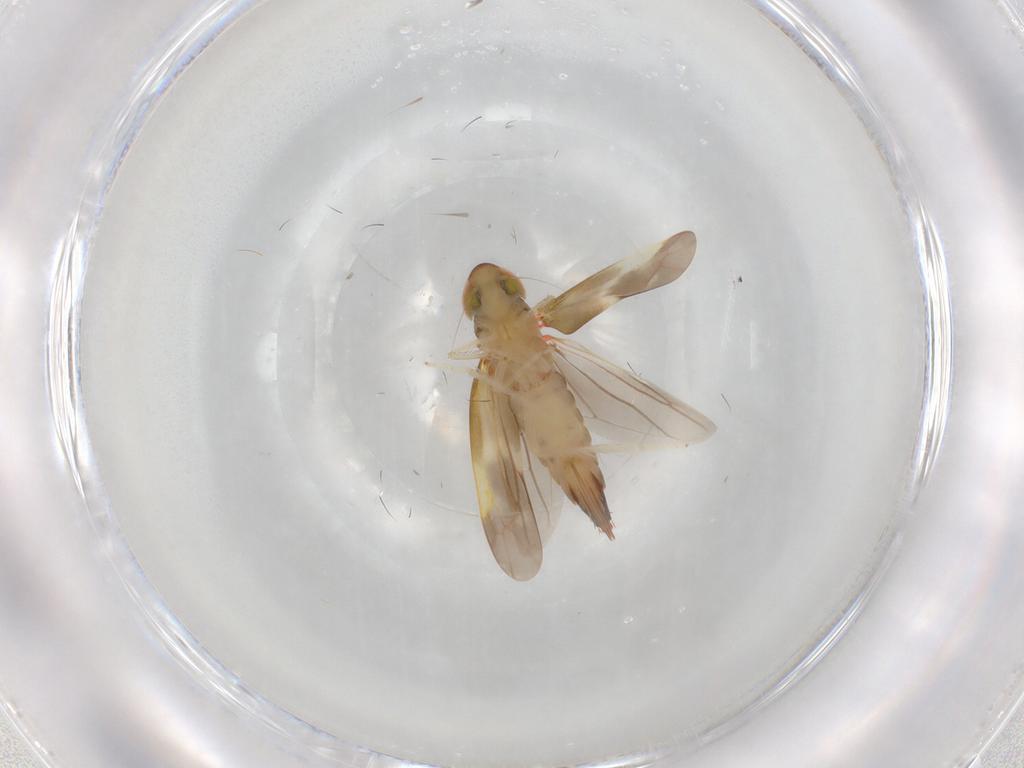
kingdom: Animalia
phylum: Arthropoda
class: Insecta
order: Hemiptera
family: Cicadellidae
